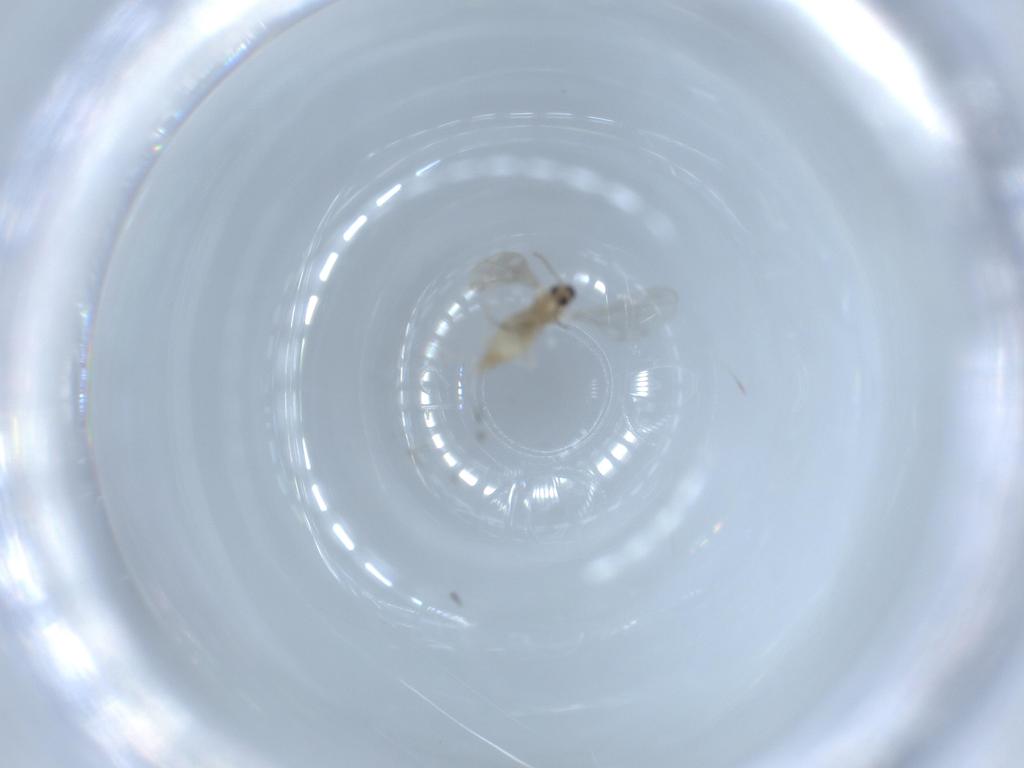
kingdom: Animalia
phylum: Arthropoda
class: Insecta
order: Diptera
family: Cecidomyiidae
